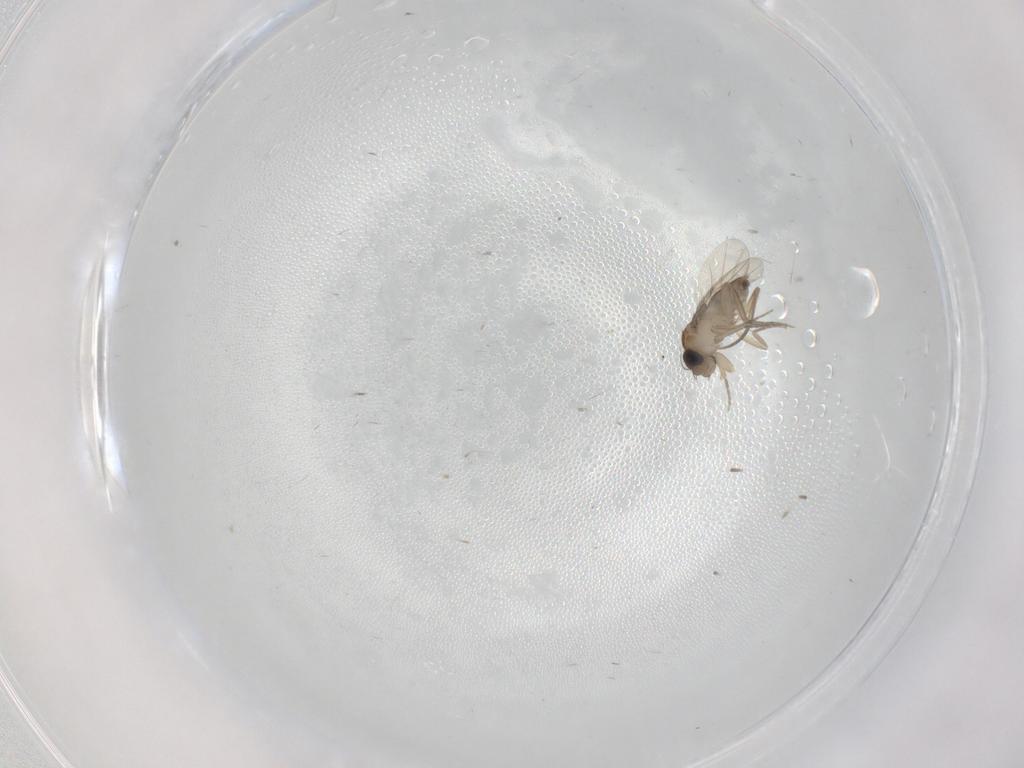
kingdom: Animalia
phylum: Arthropoda
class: Insecta
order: Diptera
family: Phoridae
